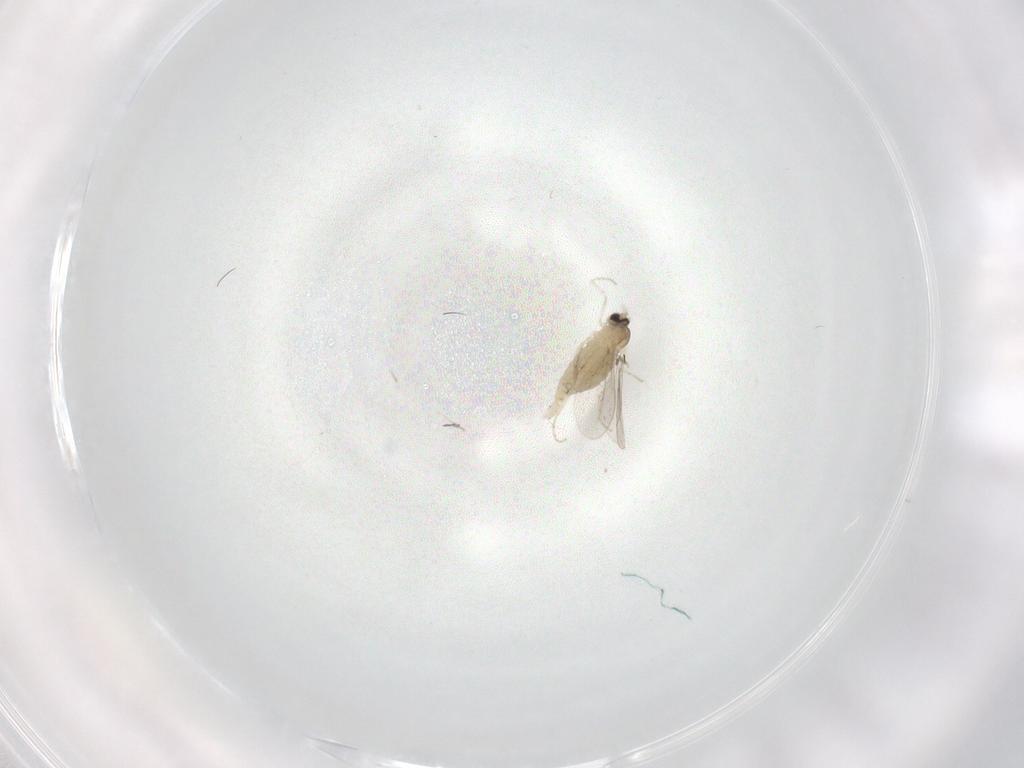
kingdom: Animalia
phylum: Arthropoda
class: Insecta
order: Diptera
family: Cecidomyiidae
